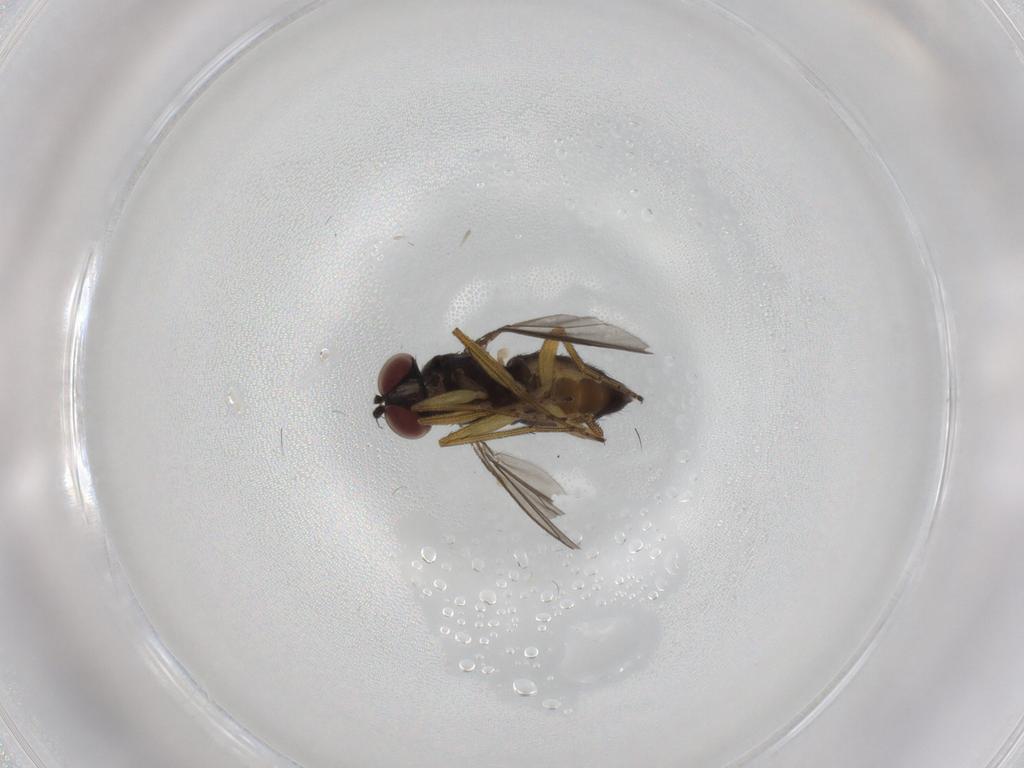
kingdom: Animalia
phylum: Arthropoda
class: Insecta
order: Diptera
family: Dolichopodidae
